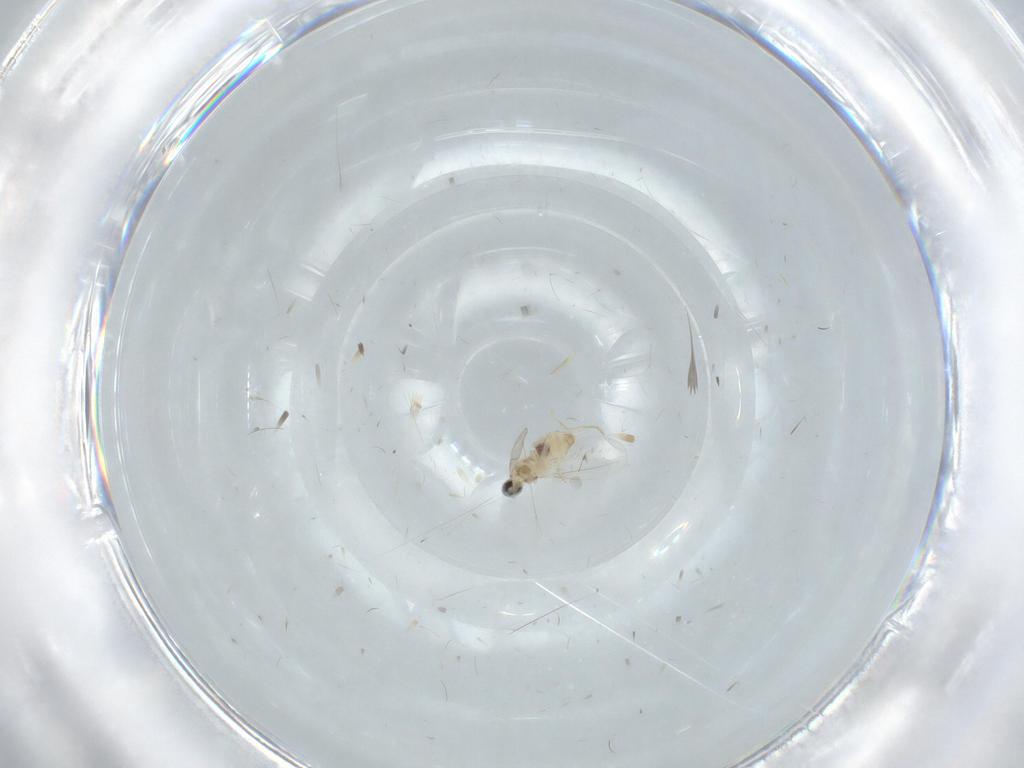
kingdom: Animalia
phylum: Arthropoda
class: Insecta
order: Diptera
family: Cecidomyiidae
